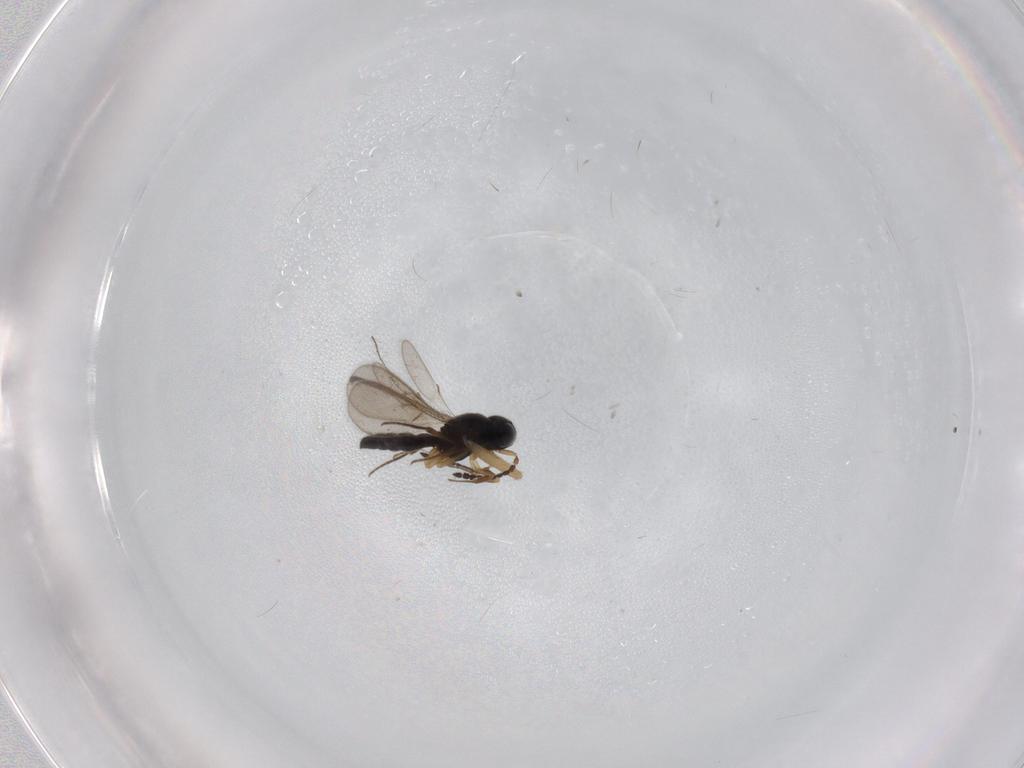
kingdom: Animalia
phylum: Arthropoda
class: Insecta
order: Hymenoptera
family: Scelionidae
